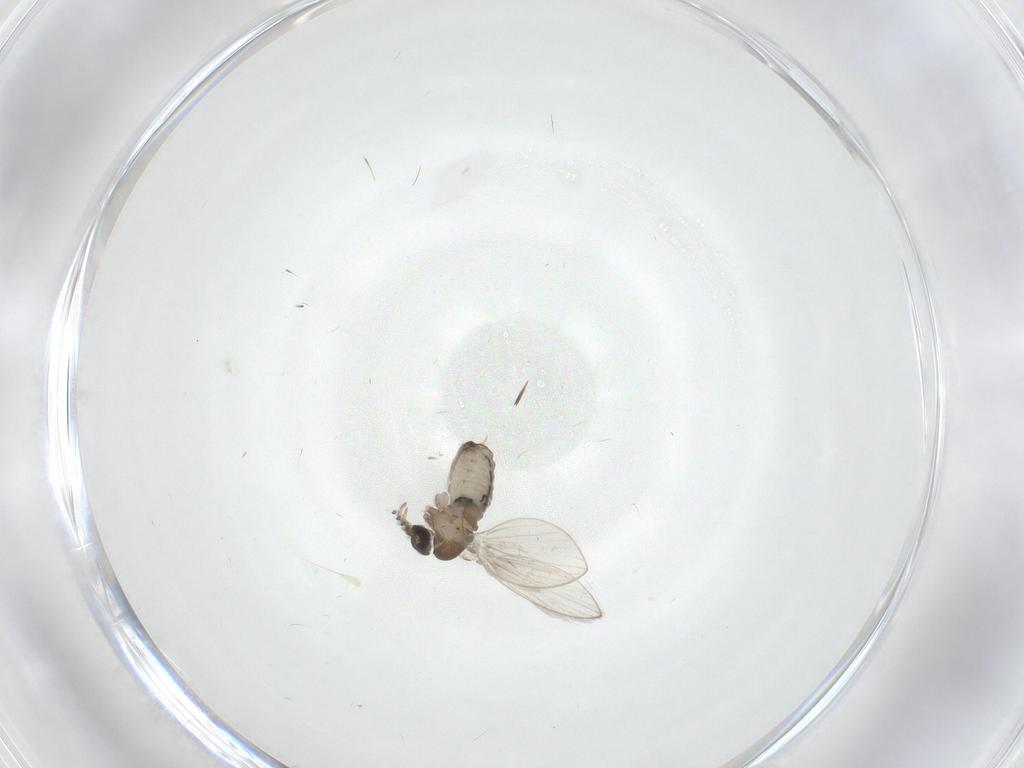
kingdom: Animalia
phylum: Arthropoda
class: Insecta
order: Diptera
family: Psychodidae
